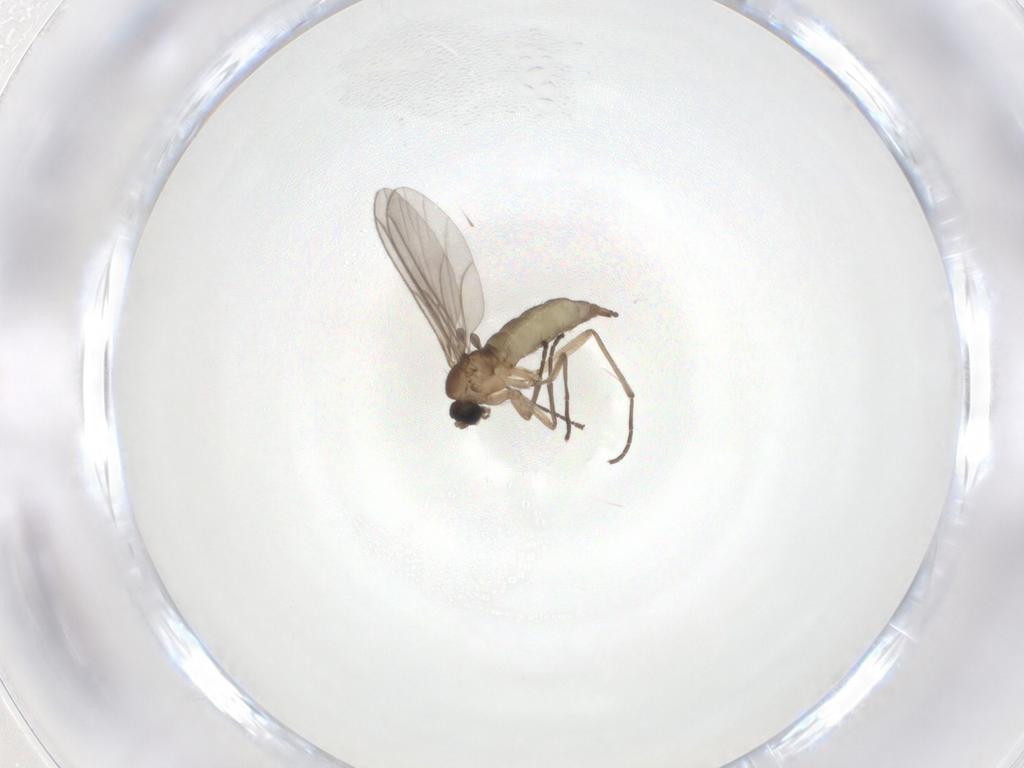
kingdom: Animalia
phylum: Arthropoda
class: Insecta
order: Diptera
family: Sciaridae
